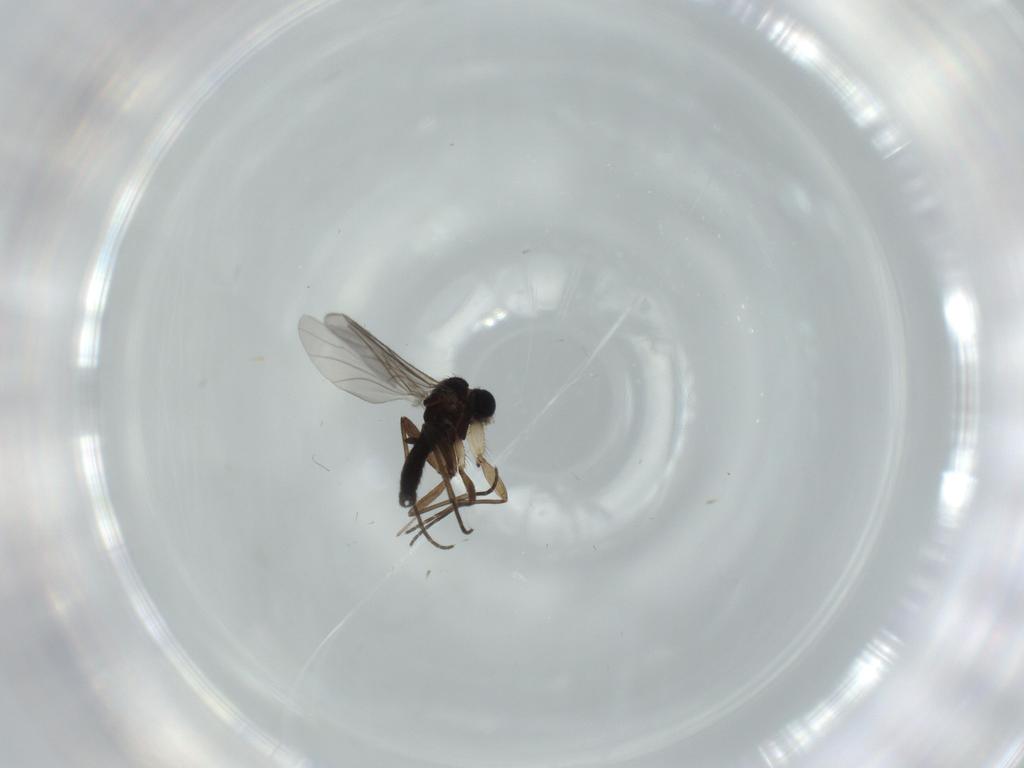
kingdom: Animalia
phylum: Arthropoda
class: Insecta
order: Diptera
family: Sciaridae
